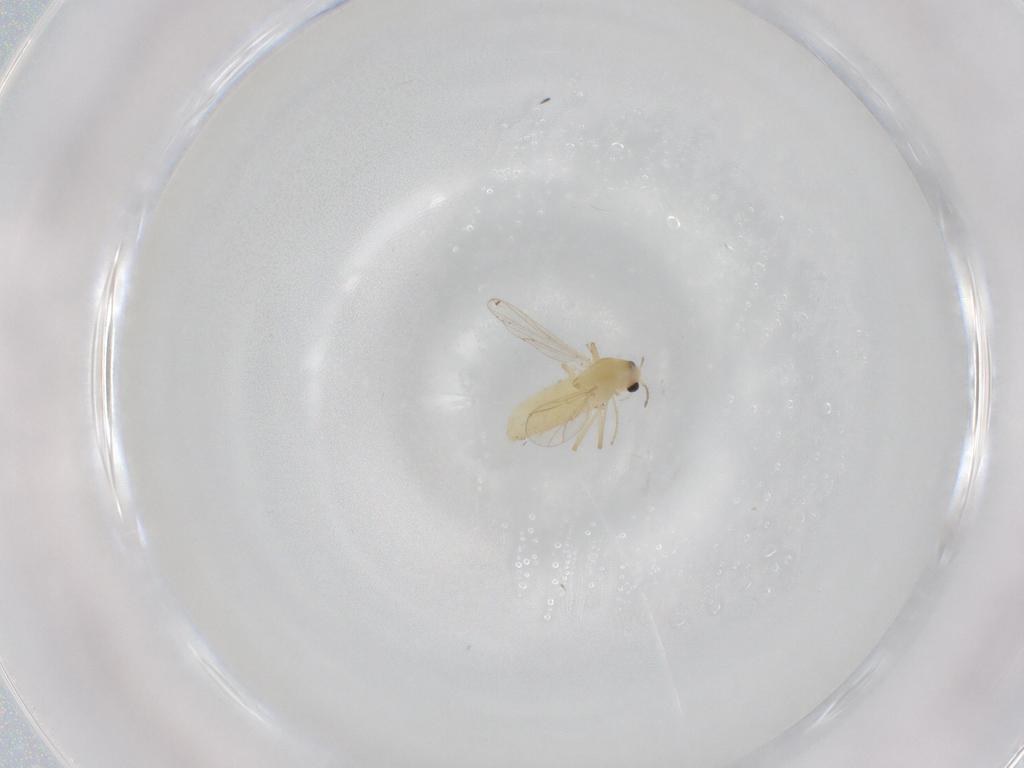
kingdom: Animalia
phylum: Arthropoda
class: Insecta
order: Diptera
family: Chironomidae
